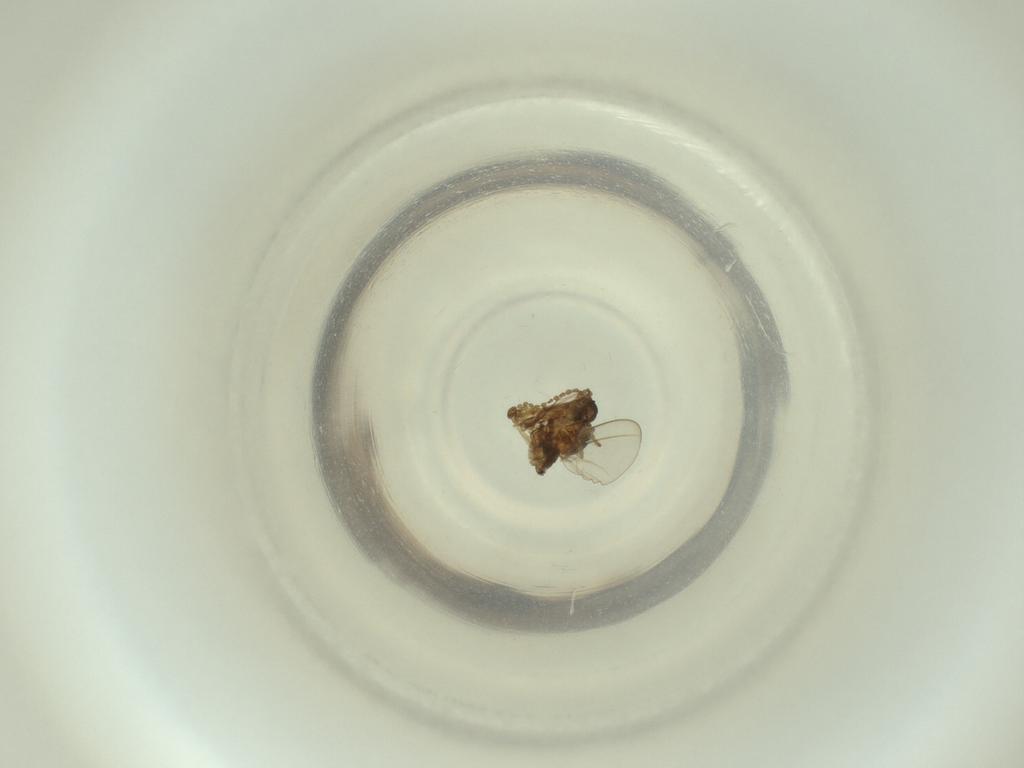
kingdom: Animalia
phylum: Arthropoda
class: Insecta
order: Diptera
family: Cecidomyiidae
